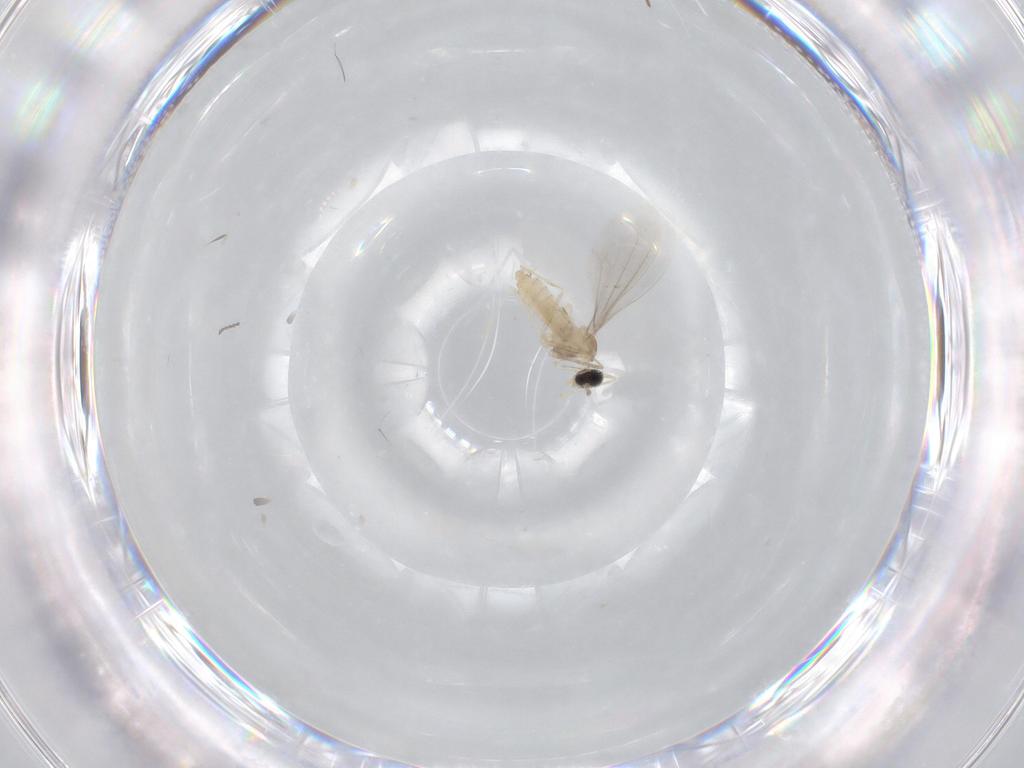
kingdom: Animalia
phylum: Arthropoda
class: Insecta
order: Diptera
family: Cecidomyiidae
